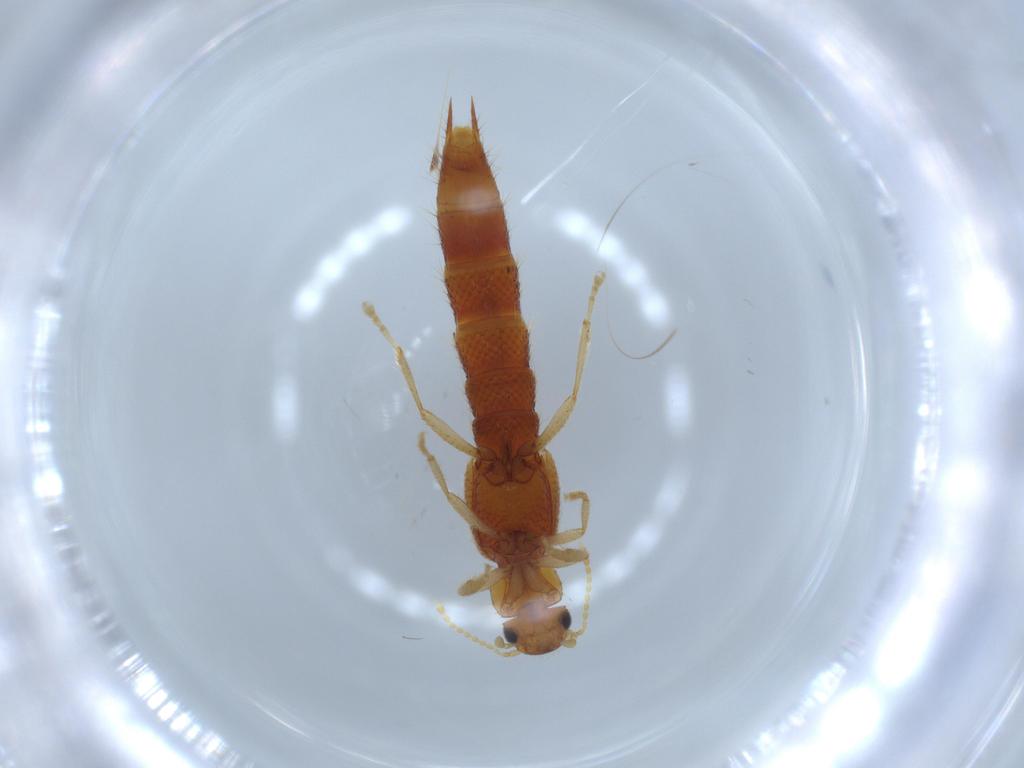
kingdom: Animalia
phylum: Arthropoda
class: Insecta
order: Coleoptera
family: Staphylinidae
